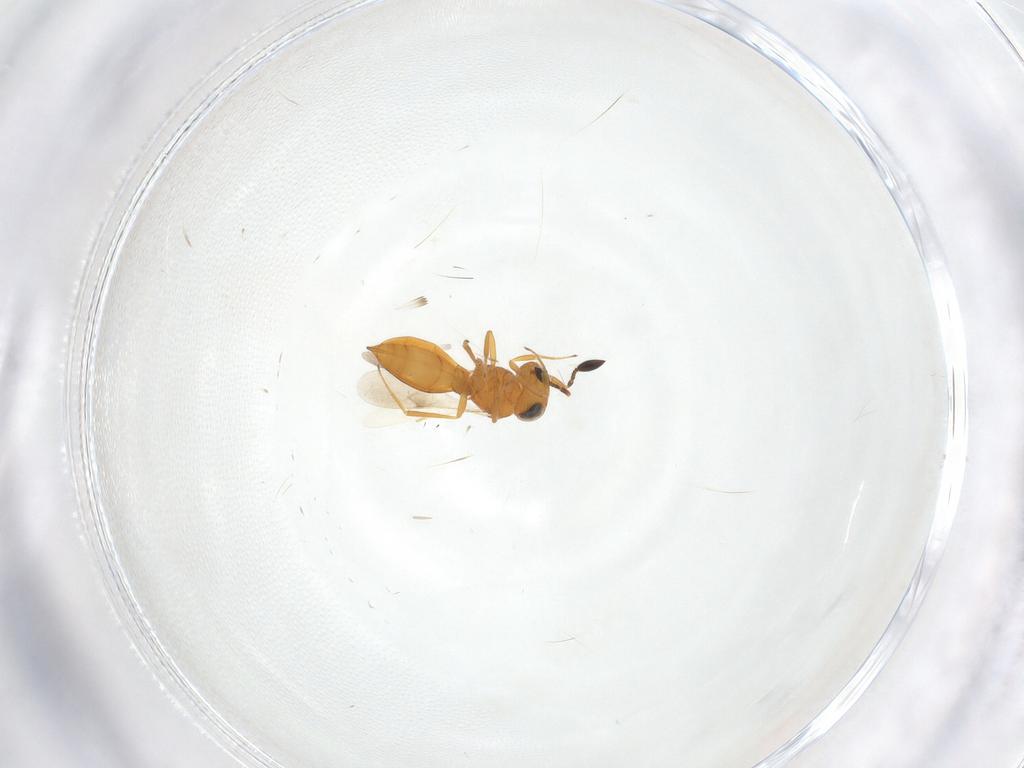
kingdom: Animalia
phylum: Arthropoda
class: Insecta
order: Hymenoptera
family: Scelionidae
